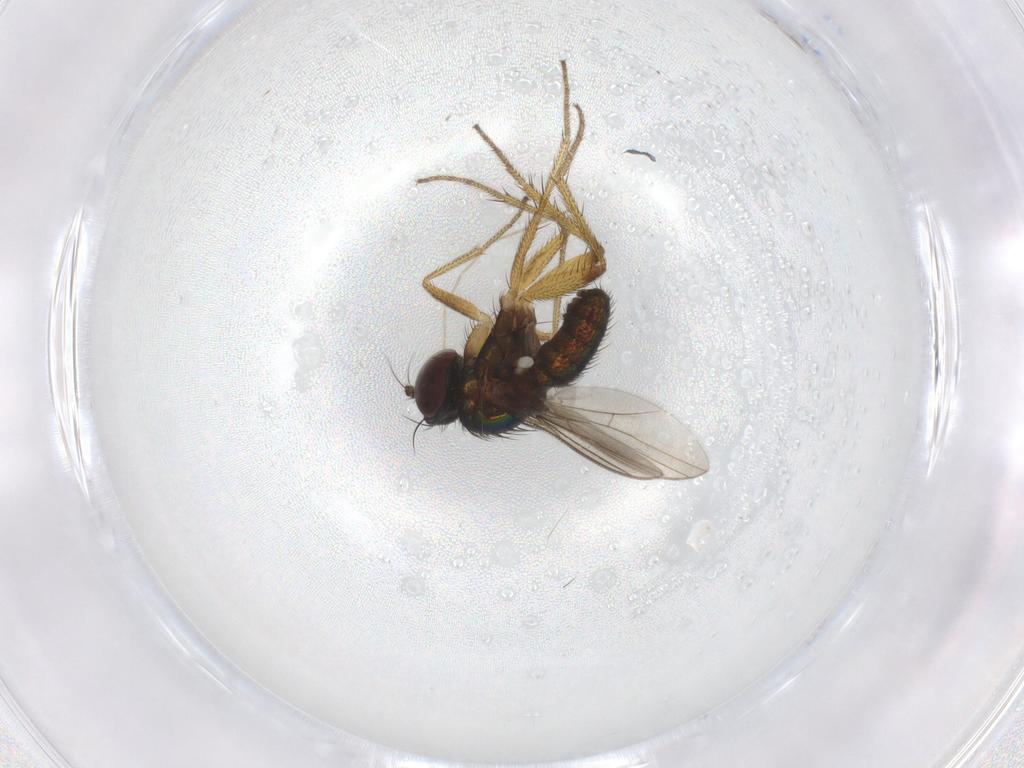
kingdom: Animalia
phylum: Arthropoda
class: Insecta
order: Diptera
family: Chironomidae
